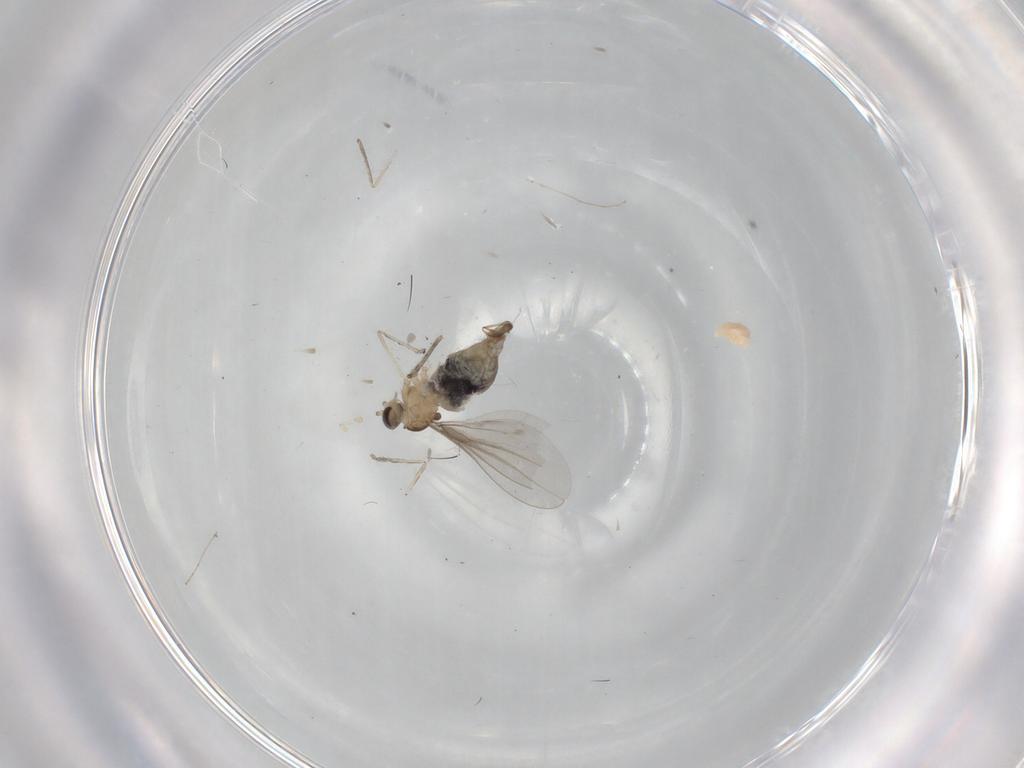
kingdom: Animalia
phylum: Arthropoda
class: Insecta
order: Diptera
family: Cecidomyiidae
